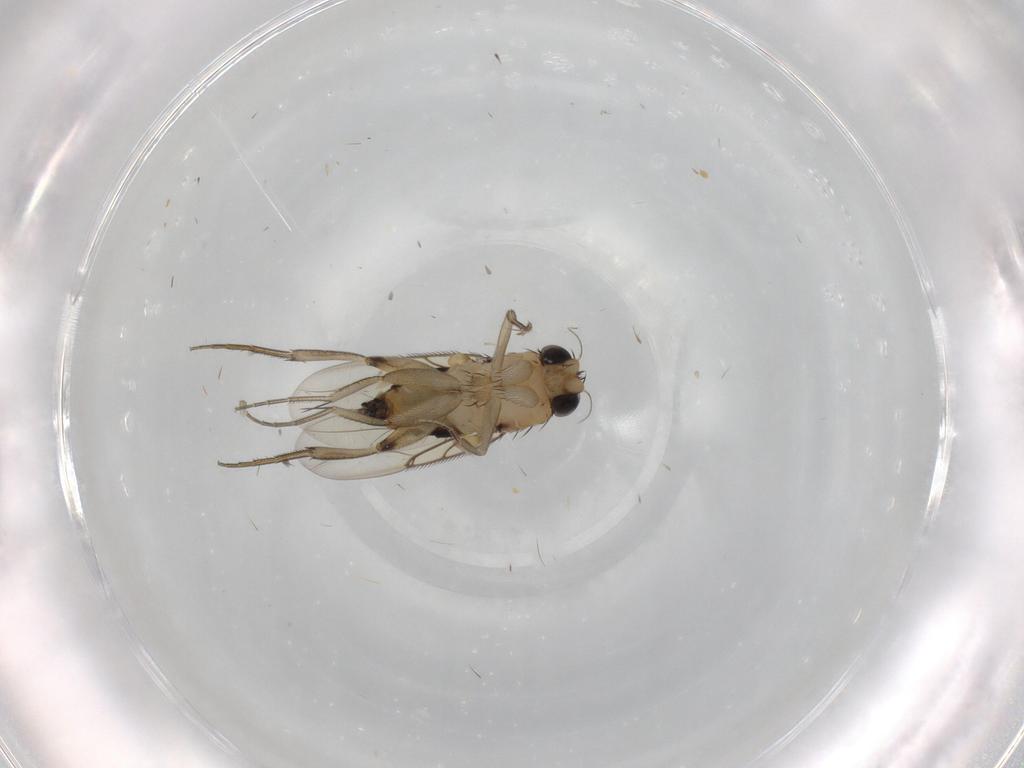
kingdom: Animalia
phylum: Arthropoda
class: Insecta
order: Diptera
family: Phoridae
